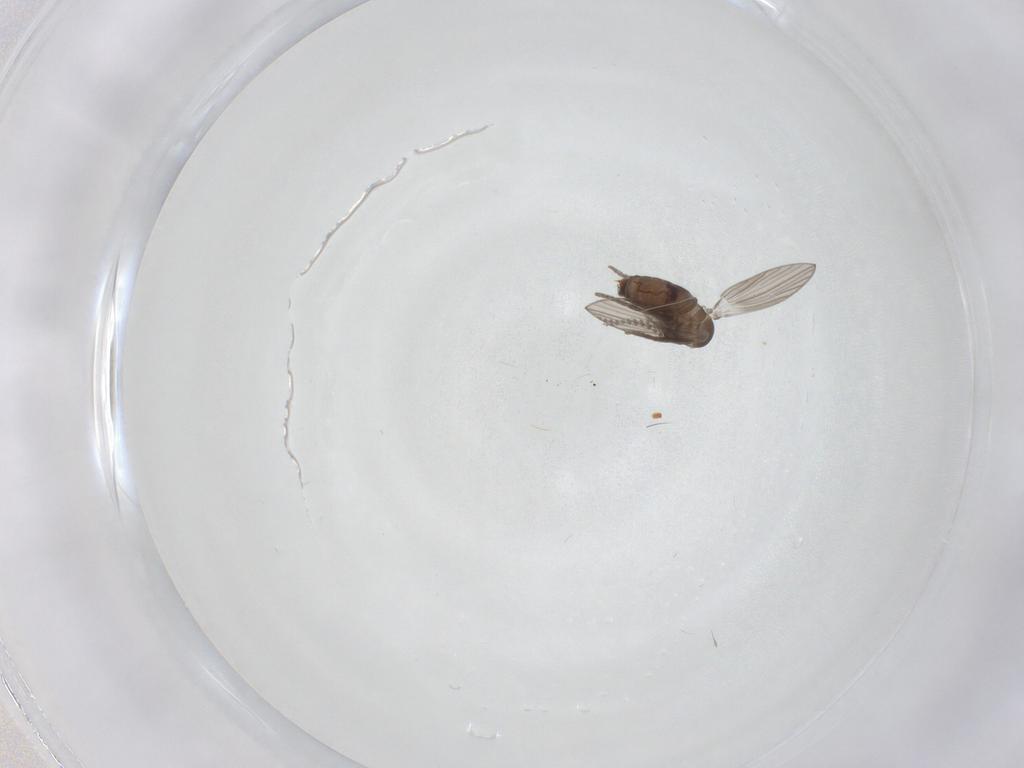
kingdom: Animalia
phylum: Arthropoda
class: Insecta
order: Diptera
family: Psychodidae
